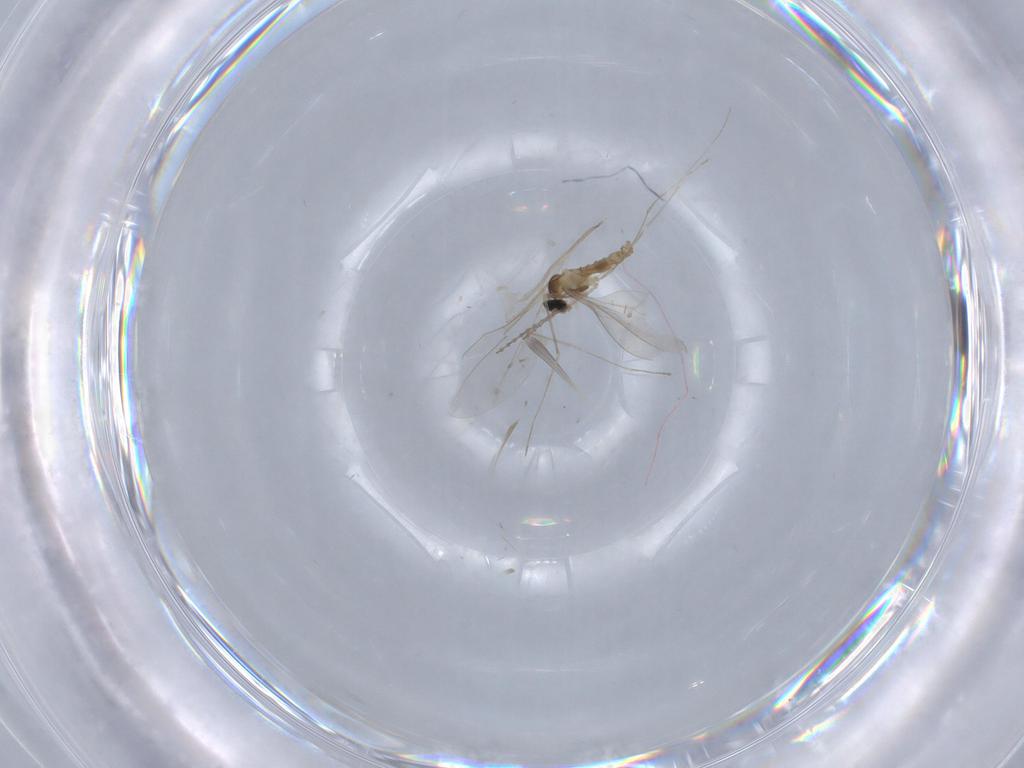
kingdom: Animalia
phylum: Arthropoda
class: Insecta
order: Diptera
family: Cecidomyiidae
